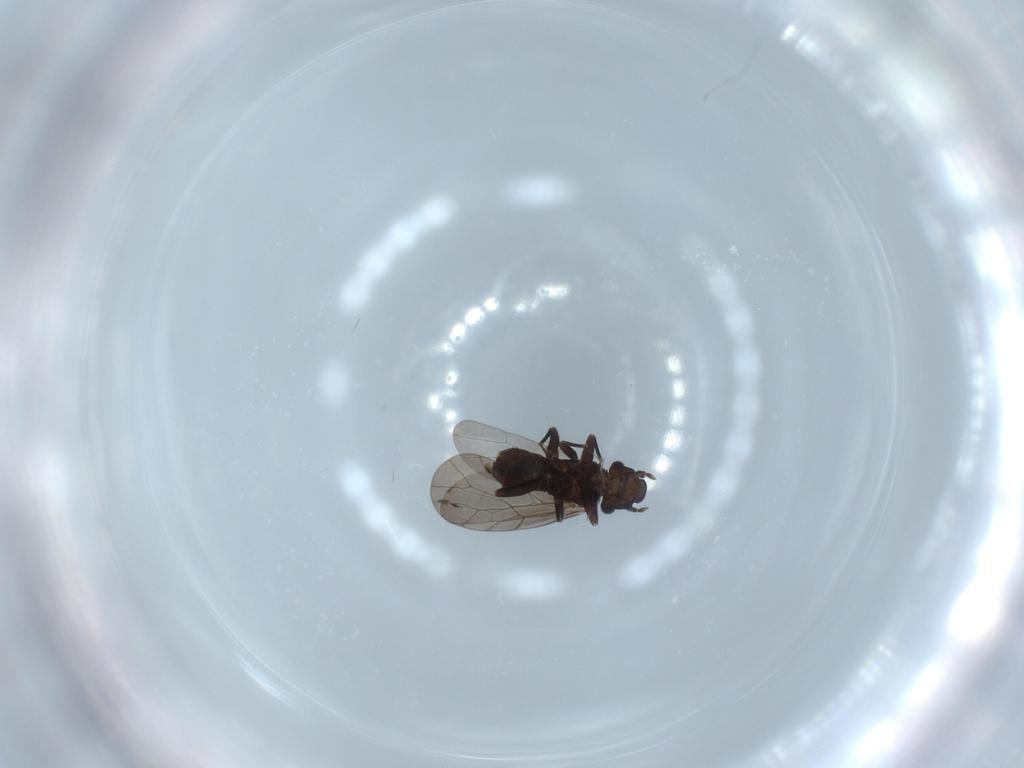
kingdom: Animalia
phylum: Arthropoda
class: Insecta
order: Psocodea
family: Lepidopsocidae
